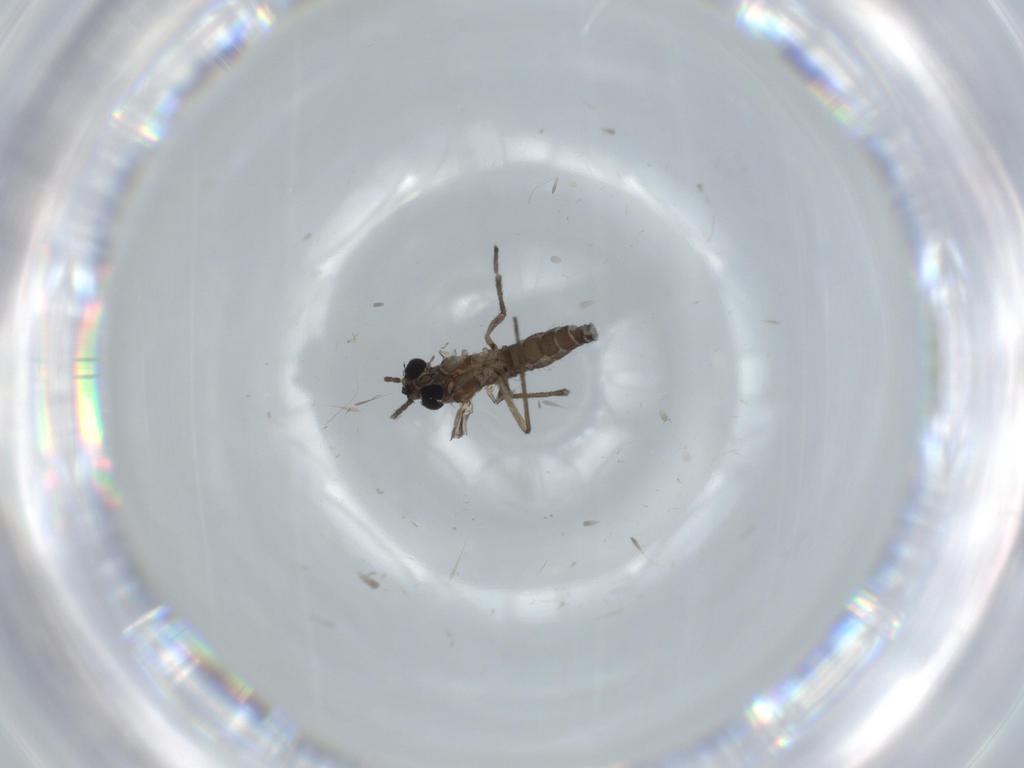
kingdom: Animalia
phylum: Arthropoda
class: Insecta
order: Diptera
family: Sciaridae
